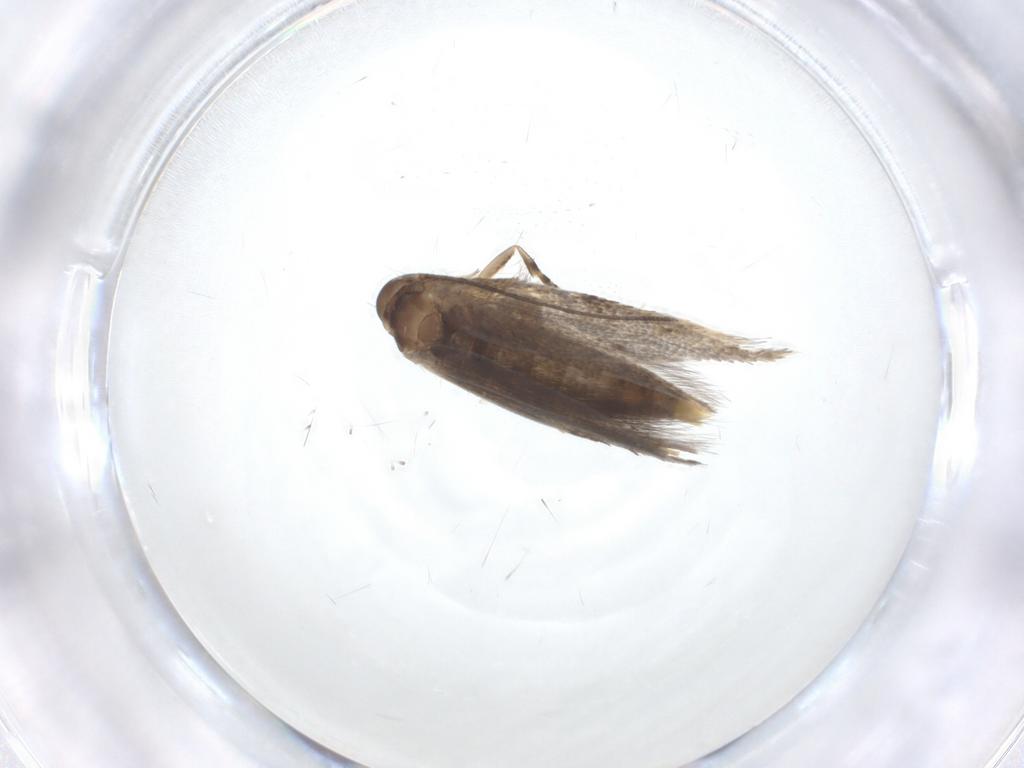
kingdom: Animalia
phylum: Arthropoda
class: Insecta
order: Lepidoptera
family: Elachistidae
